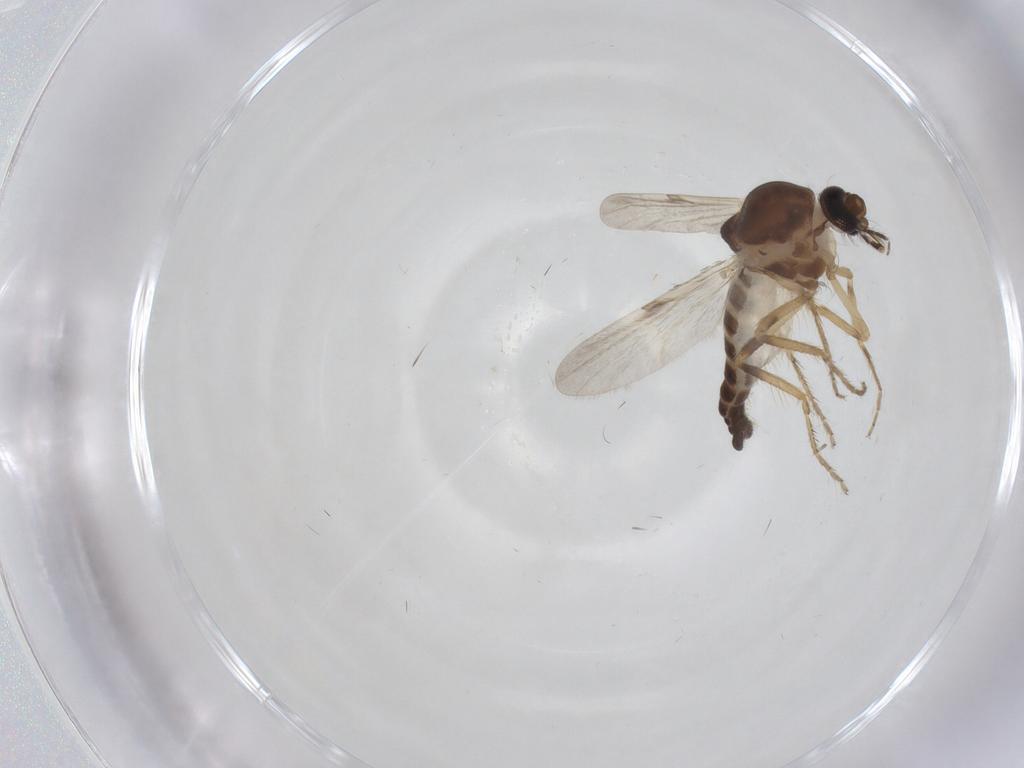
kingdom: Animalia
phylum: Arthropoda
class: Insecta
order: Diptera
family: Ceratopogonidae
